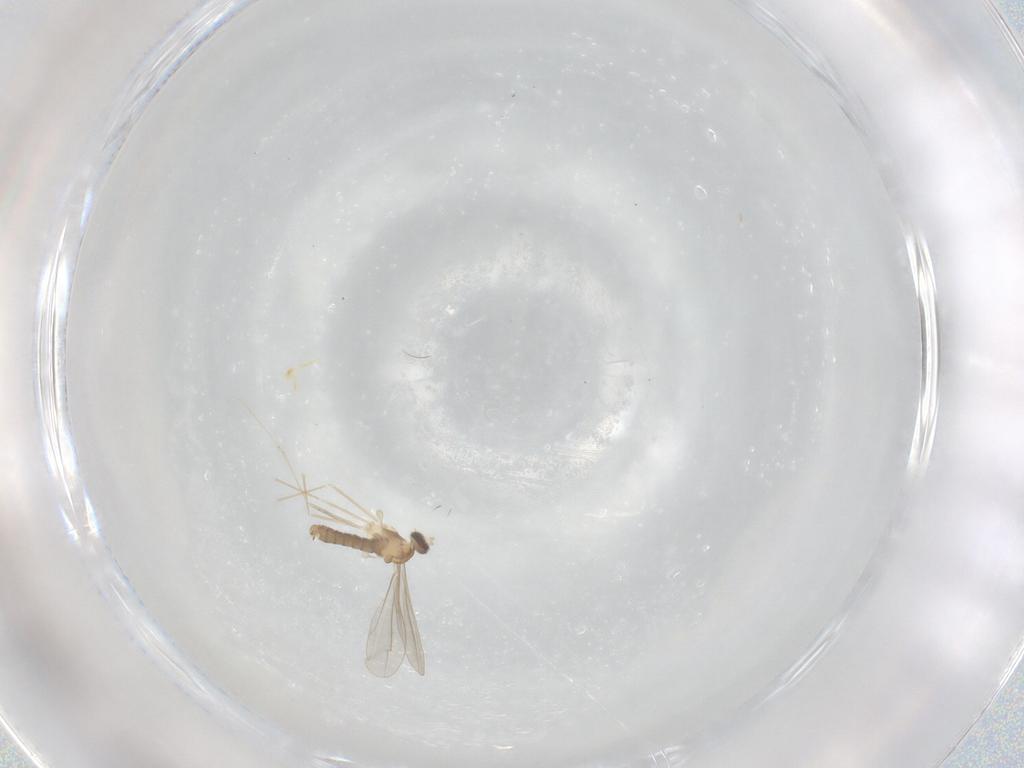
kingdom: Animalia
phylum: Arthropoda
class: Insecta
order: Diptera
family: Cecidomyiidae
